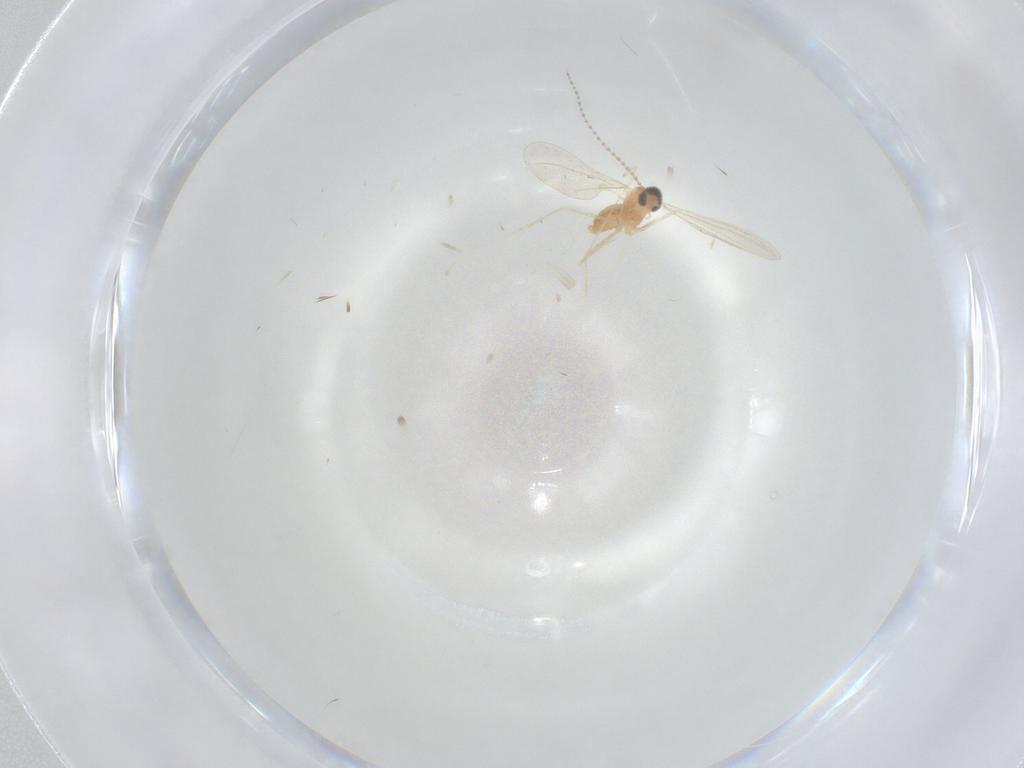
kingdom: Animalia
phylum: Arthropoda
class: Insecta
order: Diptera
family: Cecidomyiidae
